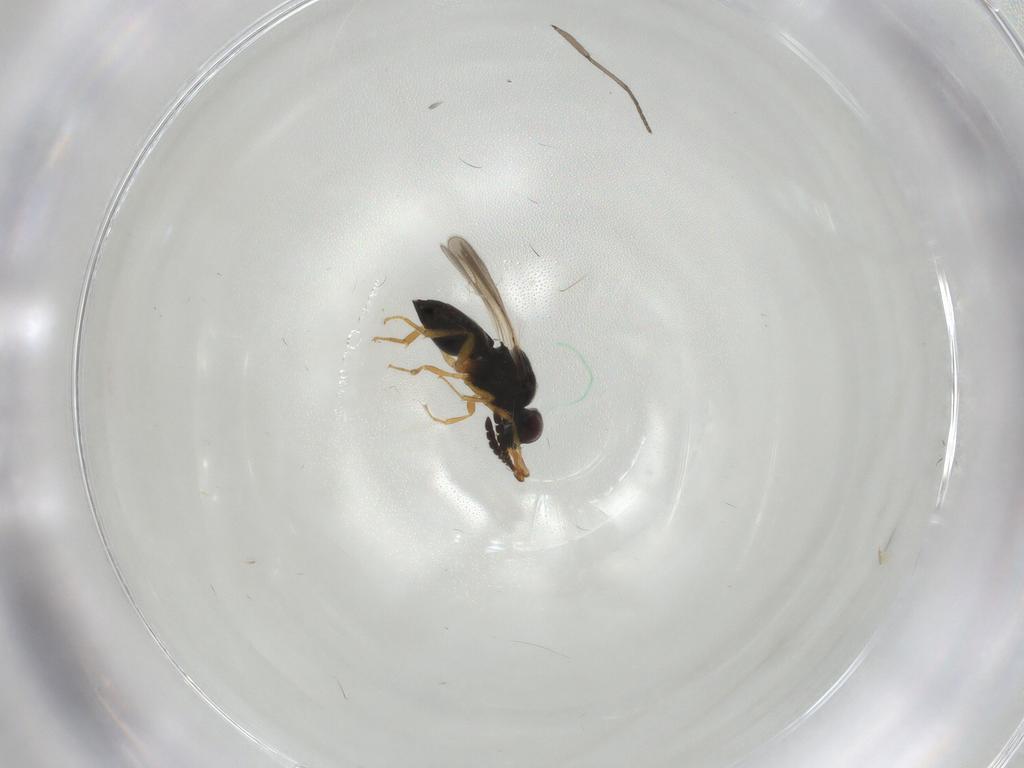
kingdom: Animalia
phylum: Arthropoda
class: Insecta
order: Hymenoptera
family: Ceraphronidae
